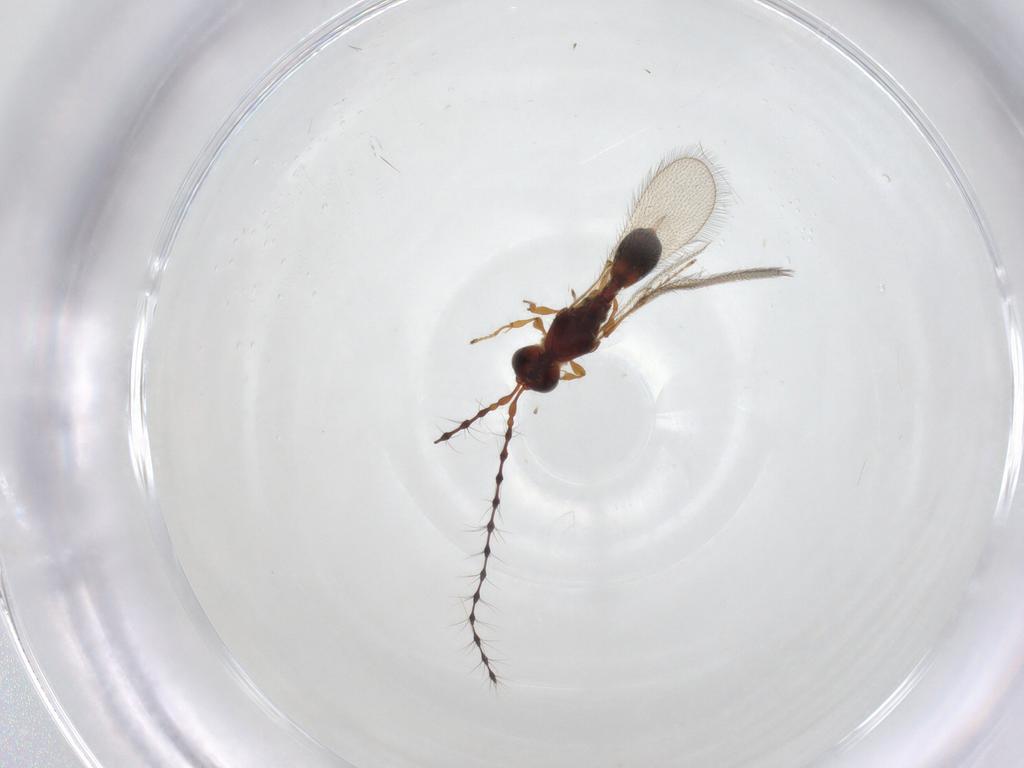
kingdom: Animalia
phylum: Arthropoda
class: Insecta
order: Hymenoptera
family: Diapriidae
